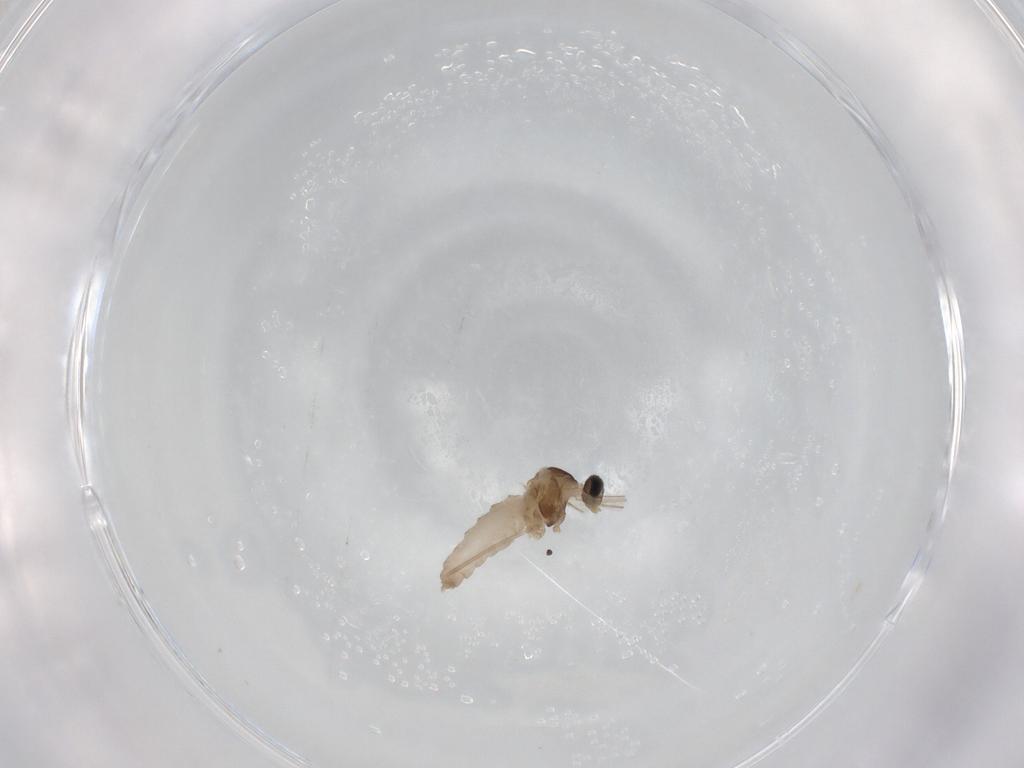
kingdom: Animalia
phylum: Arthropoda
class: Insecta
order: Diptera
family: Cecidomyiidae
